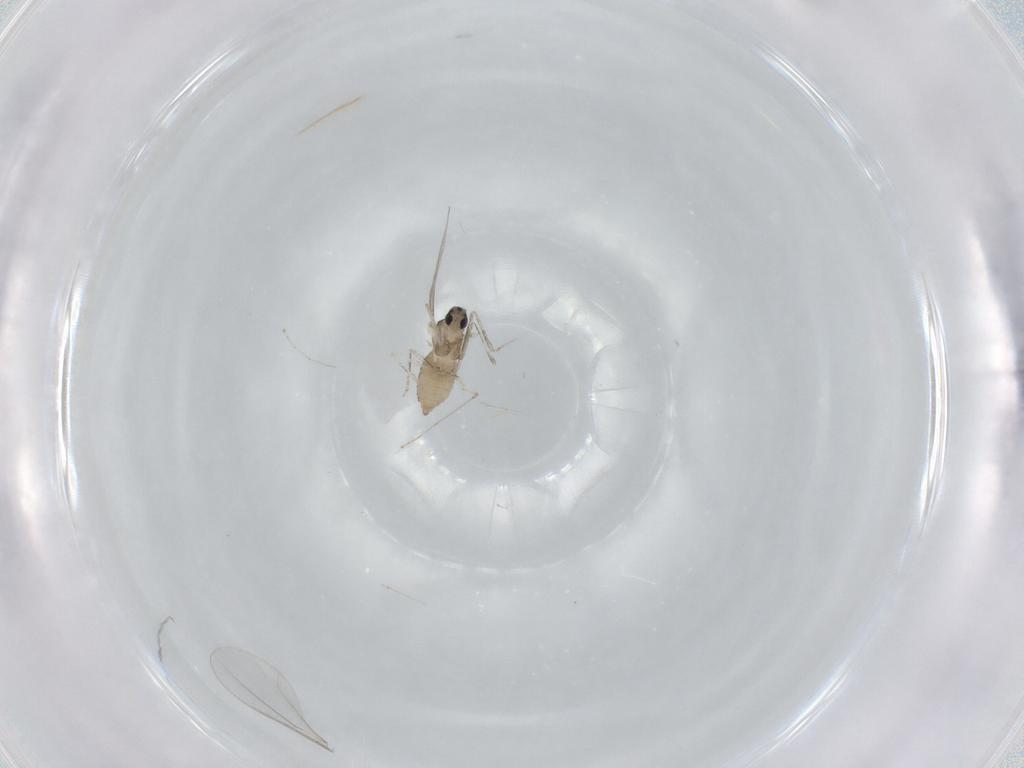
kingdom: Animalia
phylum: Arthropoda
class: Insecta
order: Diptera
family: Cecidomyiidae
